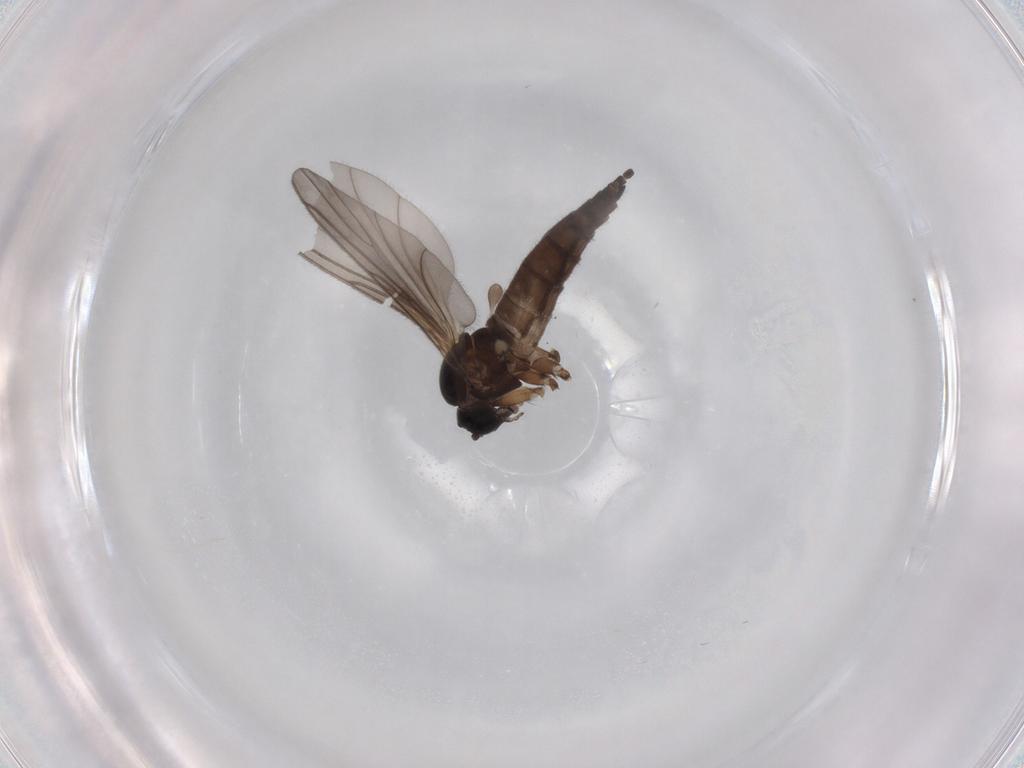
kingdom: Animalia
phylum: Arthropoda
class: Insecta
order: Diptera
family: Sciaridae
